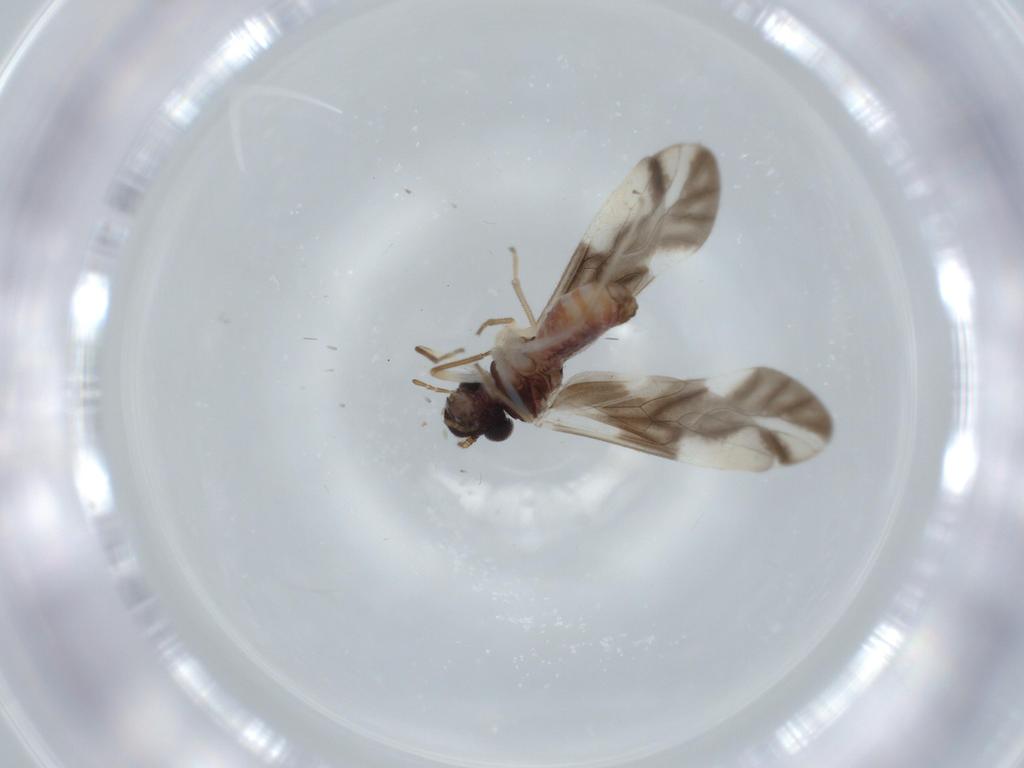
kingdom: Animalia
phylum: Arthropoda
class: Insecta
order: Psocodea
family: Caeciliusidae
